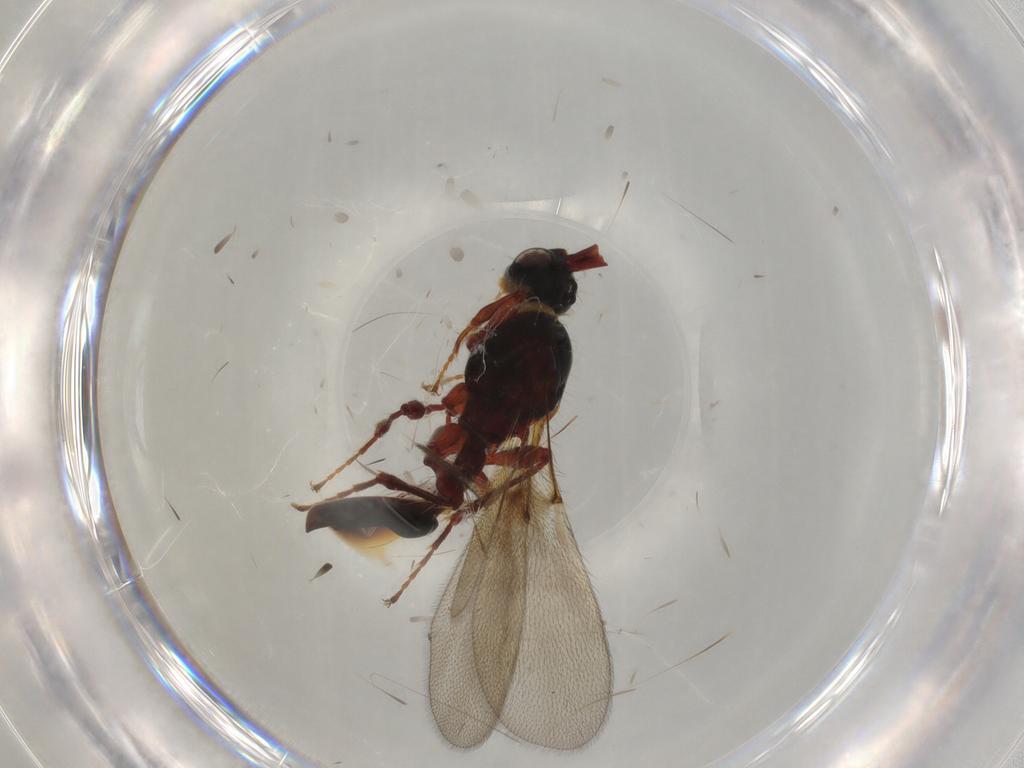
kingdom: Animalia
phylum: Arthropoda
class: Insecta
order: Hymenoptera
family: Diapriidae
